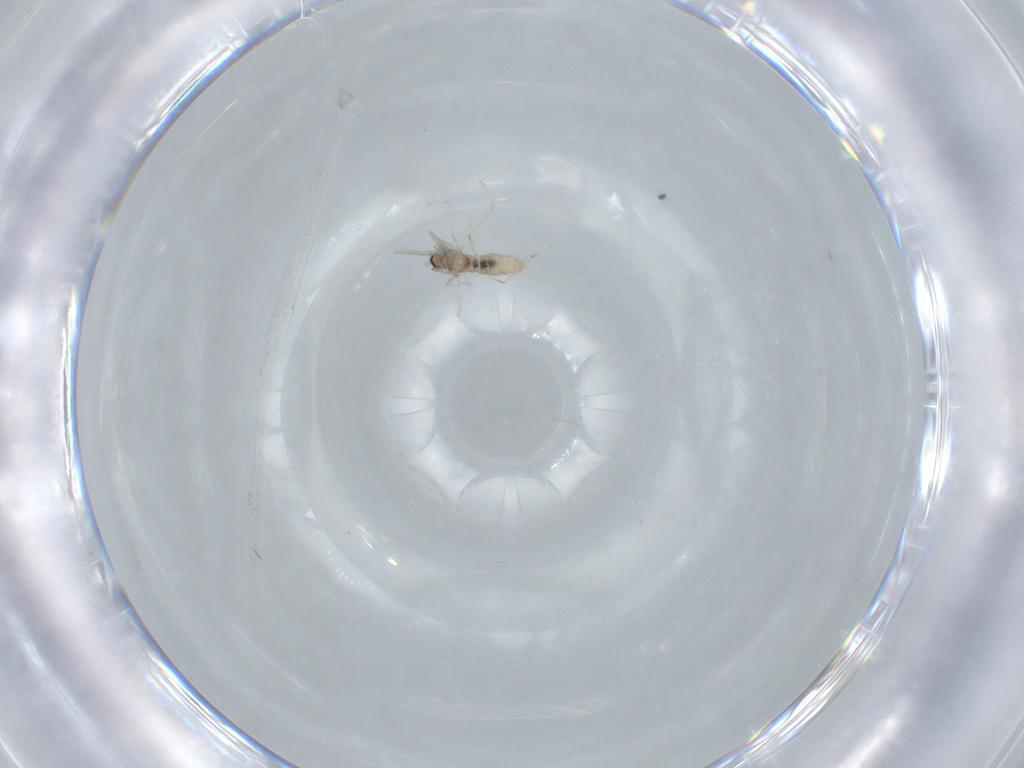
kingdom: Animalia
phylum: Arthropoda
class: Insecta
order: Diptera
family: Cecidomyiidae
